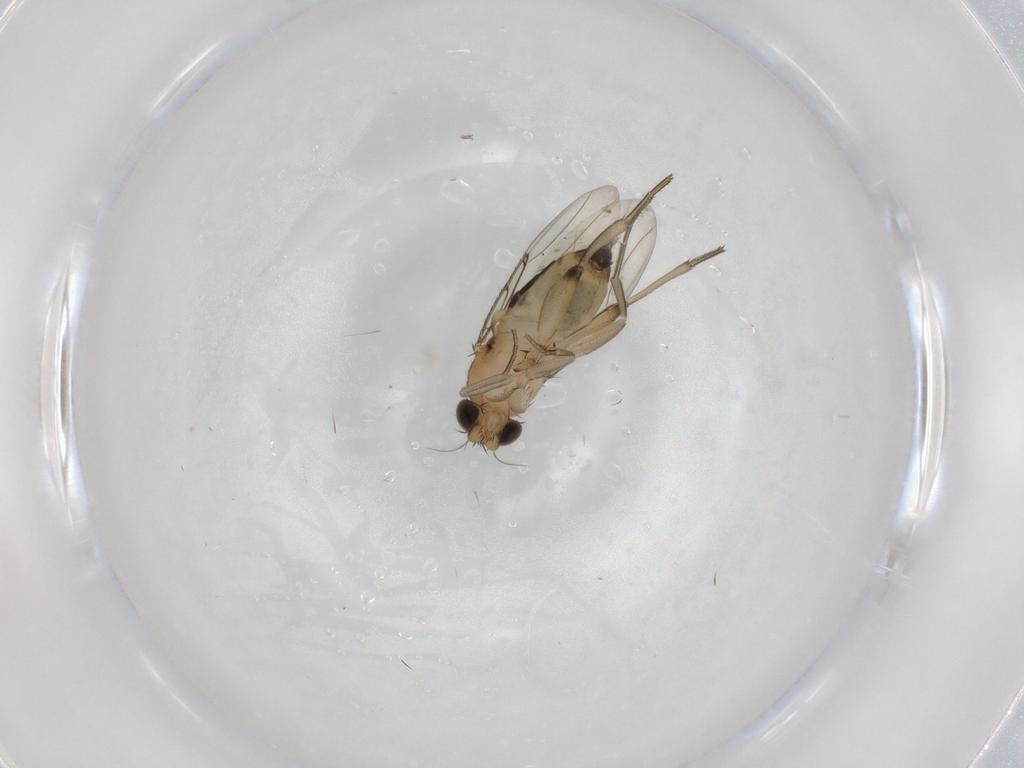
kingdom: Animalia
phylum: Arthropoda
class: Insecta
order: Diptera
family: Phoridae
